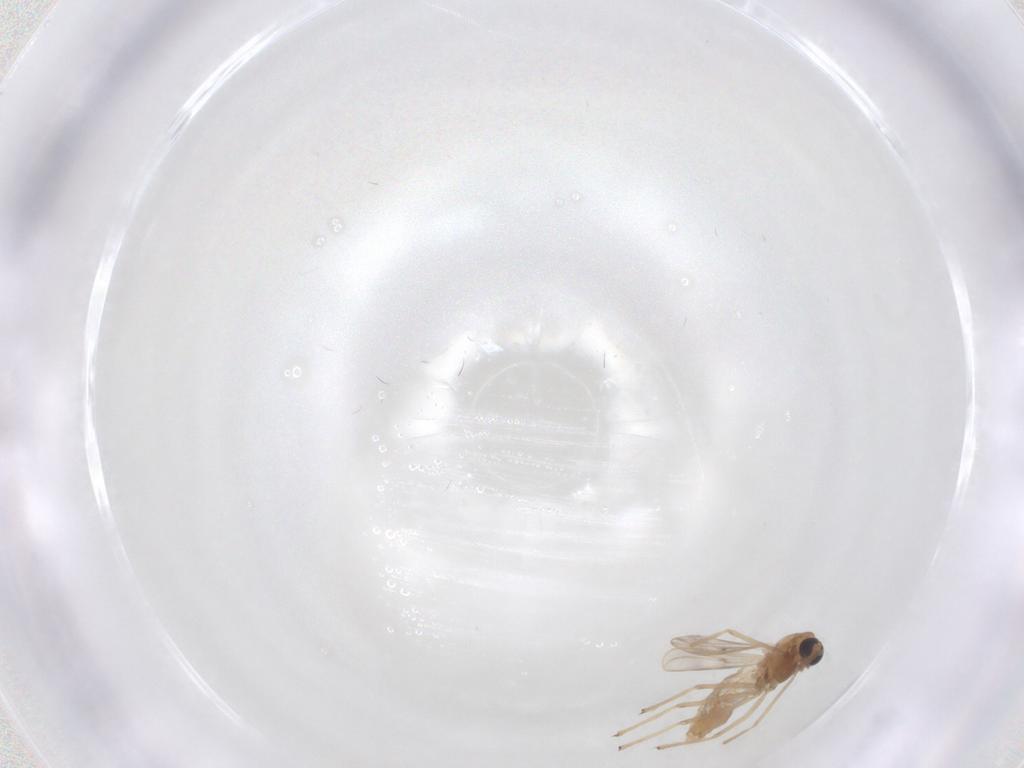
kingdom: Animalia
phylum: Arthropoda
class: Insecta
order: Diptera
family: Chironomidae
